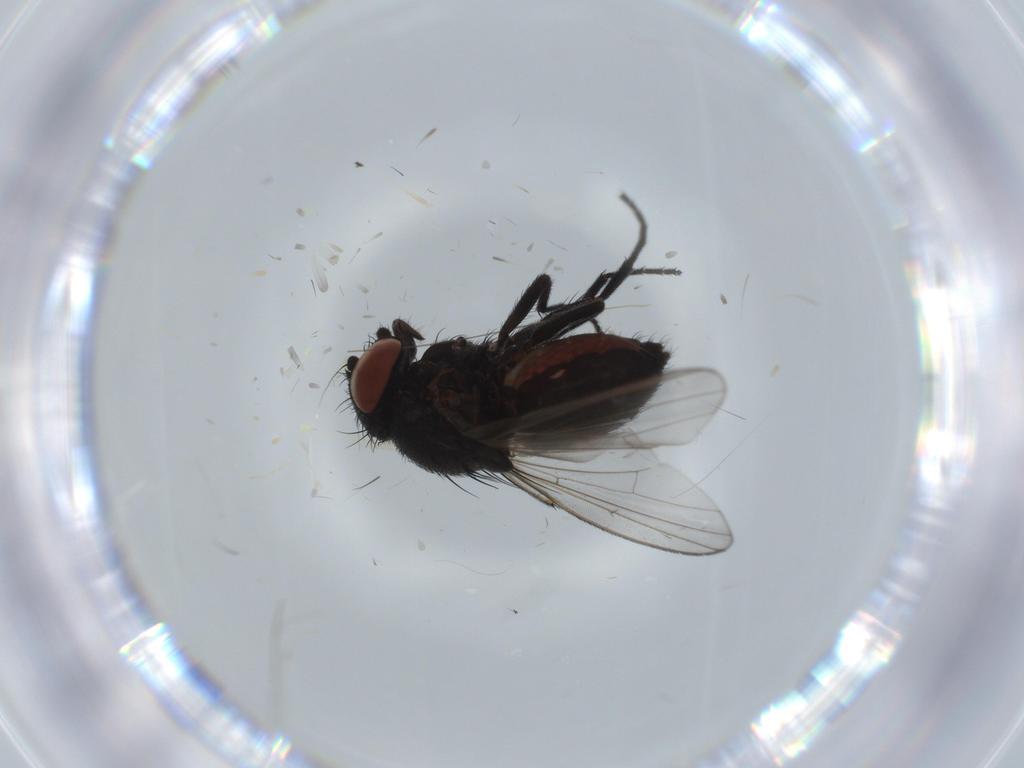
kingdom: Animalia
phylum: Arthropoda
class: Insecta
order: Diptera
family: Milichiidae
